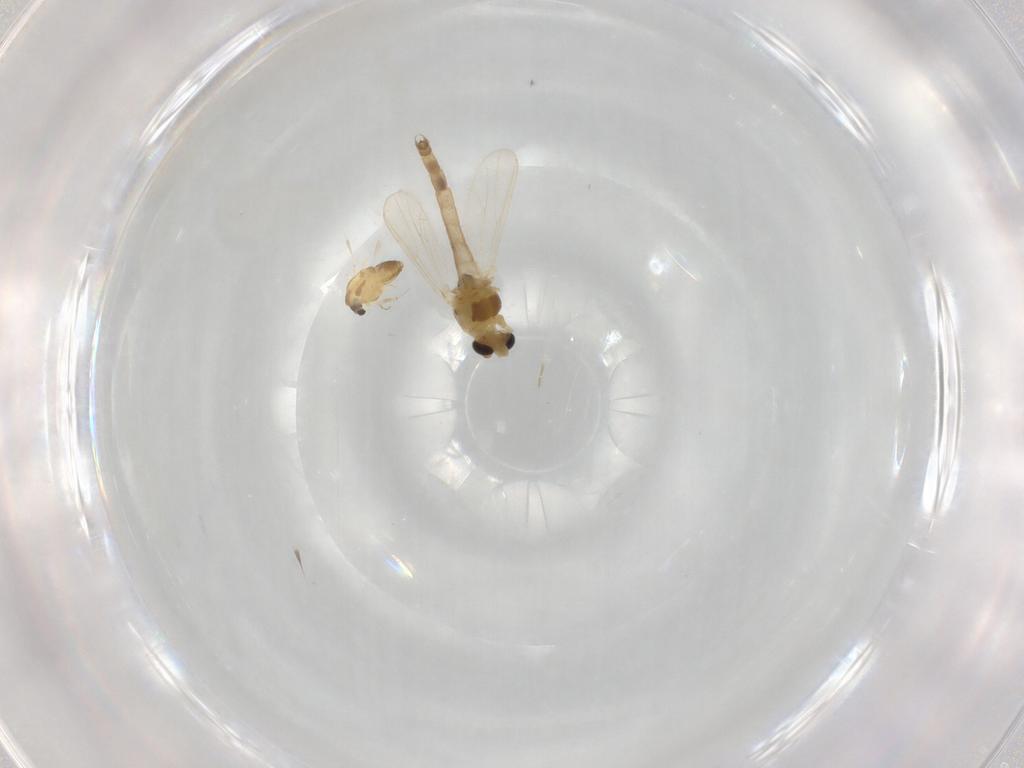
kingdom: Animalia
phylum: Arthropoda
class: Insecta
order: Diptera
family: Chironomidae
